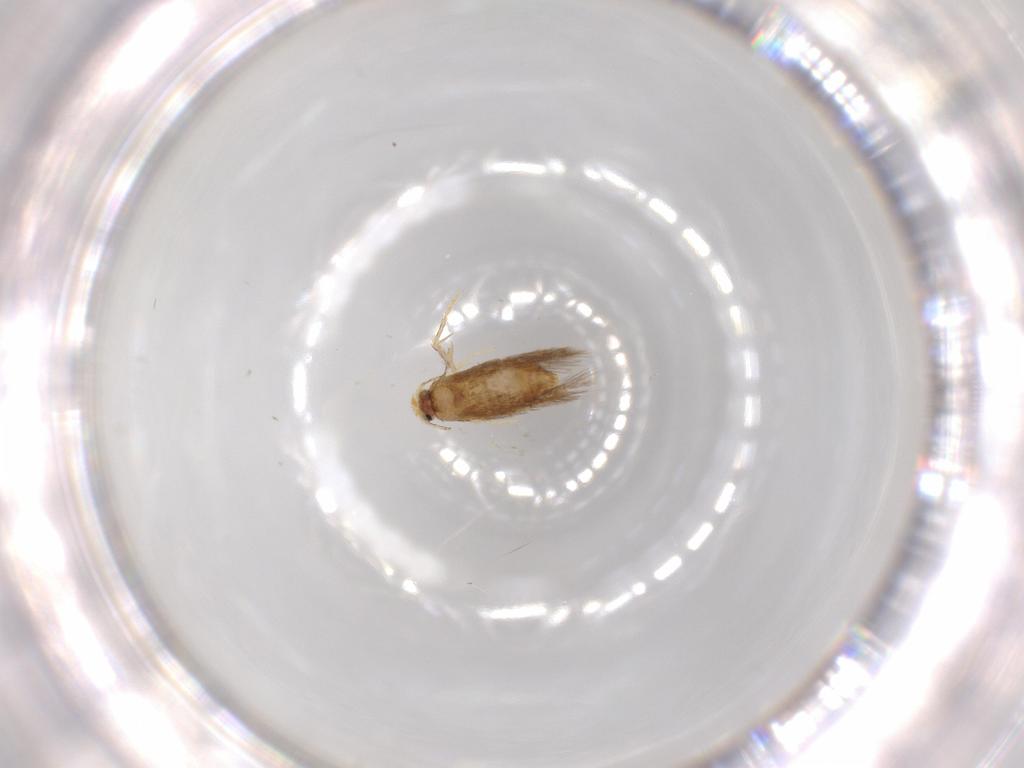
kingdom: Animalia
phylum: Arthropoda
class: Insecta
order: Lepidoptera
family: Nepticulidae
